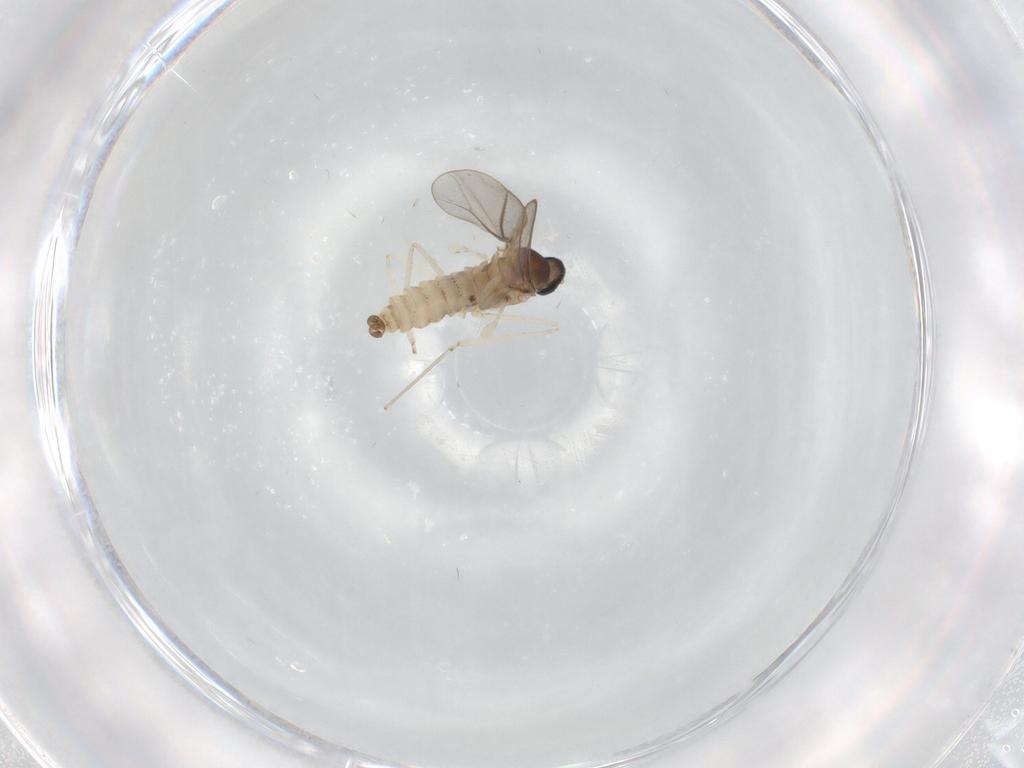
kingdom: Animalia
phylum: Arthropoda
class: Insecta
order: Diptera
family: Cecidomyiidae
